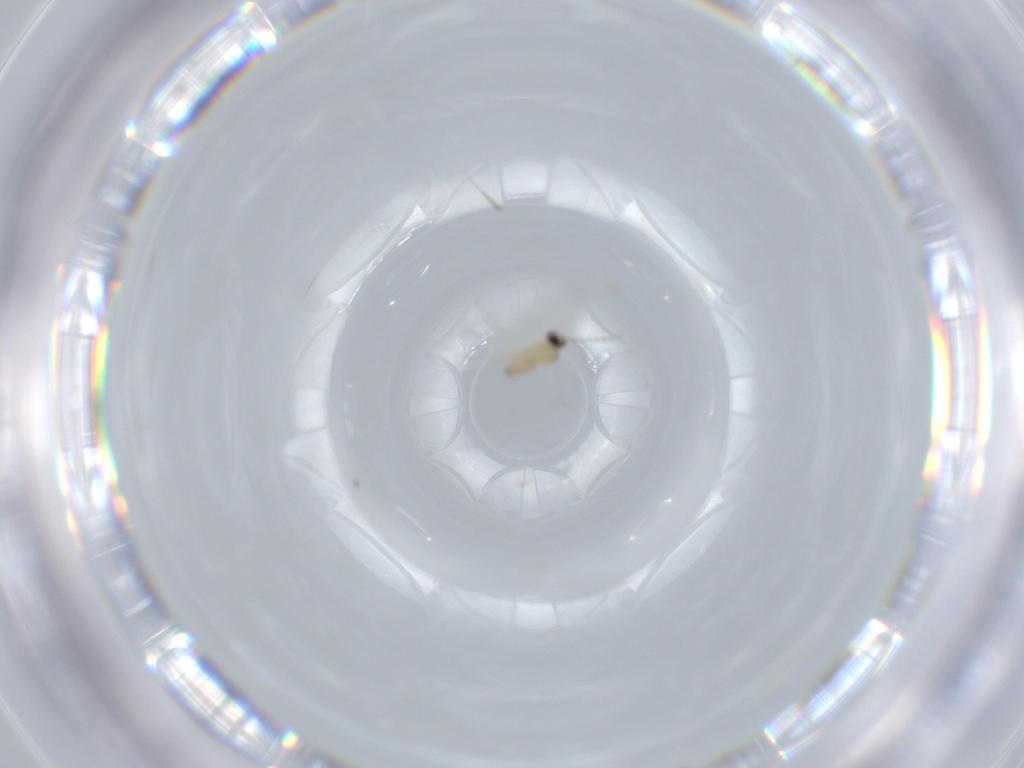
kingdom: Animalia
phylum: Arthropoda
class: Insecta
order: Diptera
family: Cecidomyiidae
